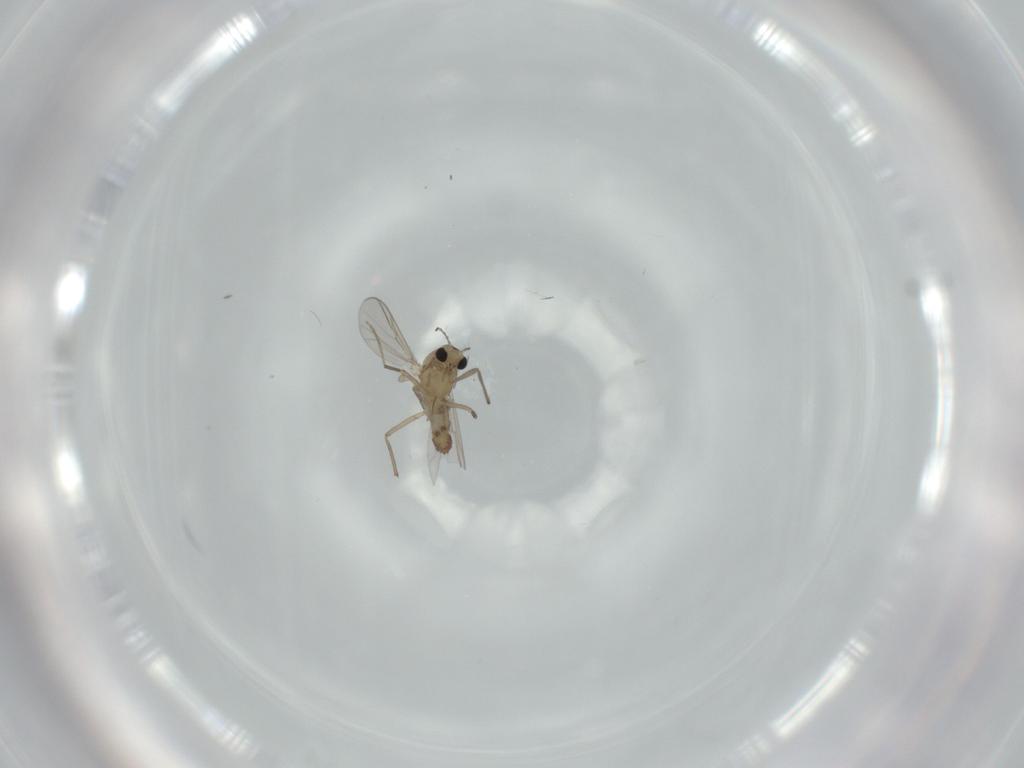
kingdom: Animalia
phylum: Arthropoda
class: Insecta
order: Diptera
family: Chironomidae
